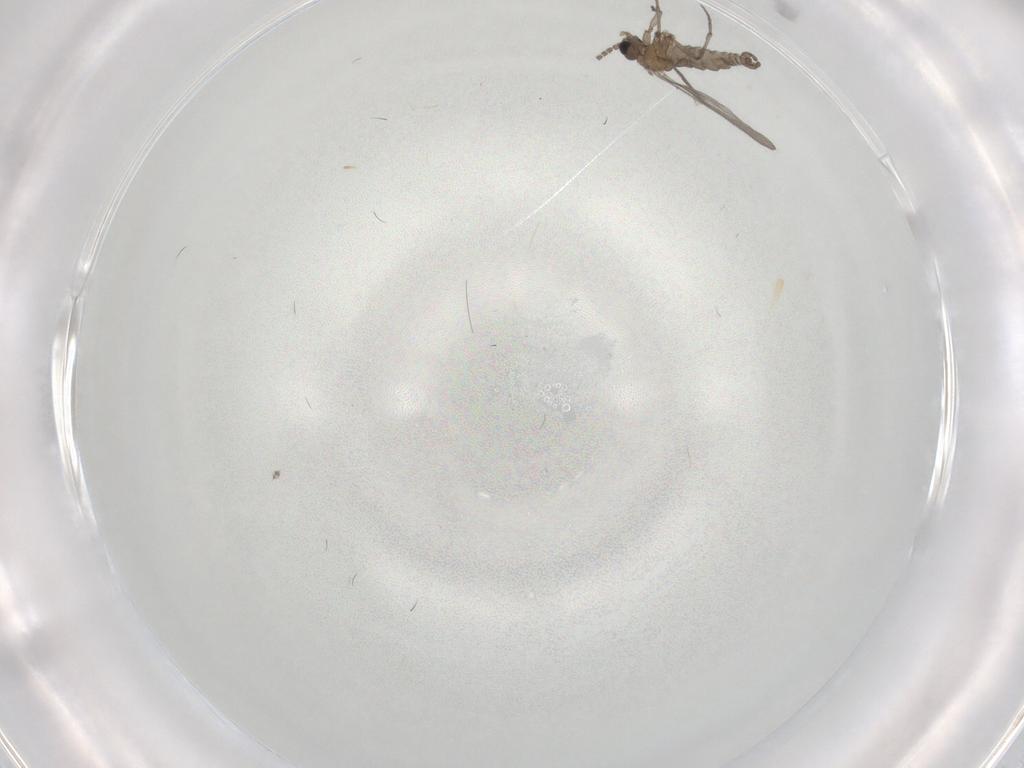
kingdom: Animalia
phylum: Arthropoda
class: Insecta
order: Diptera
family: Sciaridae
